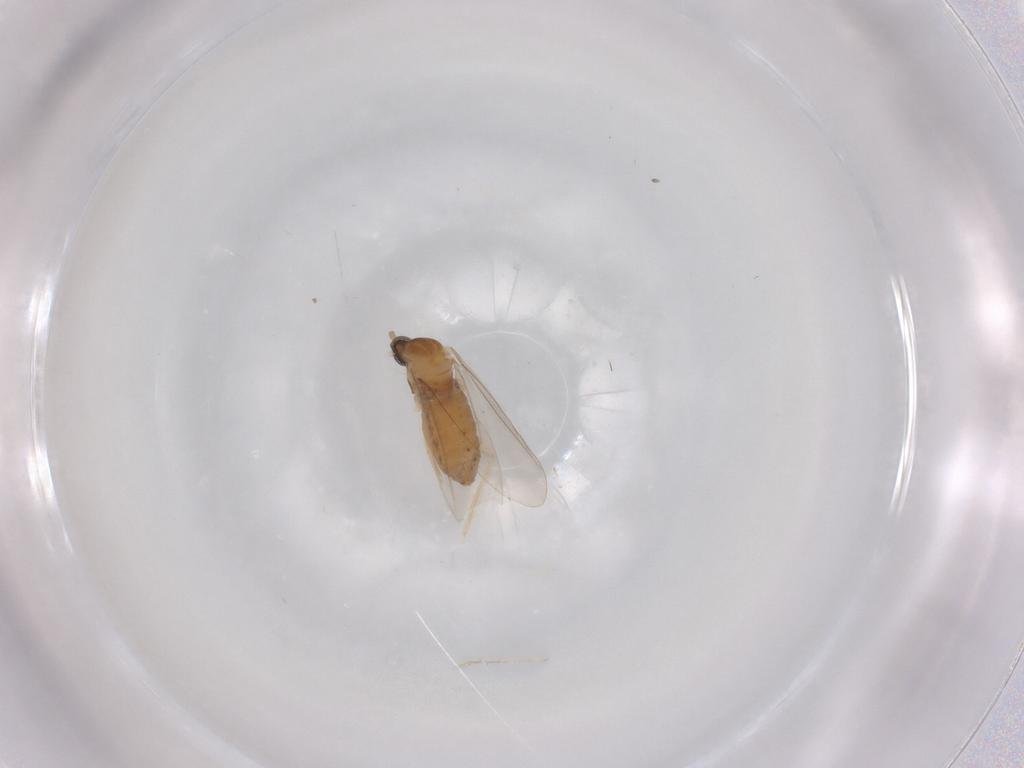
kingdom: Animalia
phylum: Arthropoda
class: Insecta
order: Diptera
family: Cecidomyiidae
